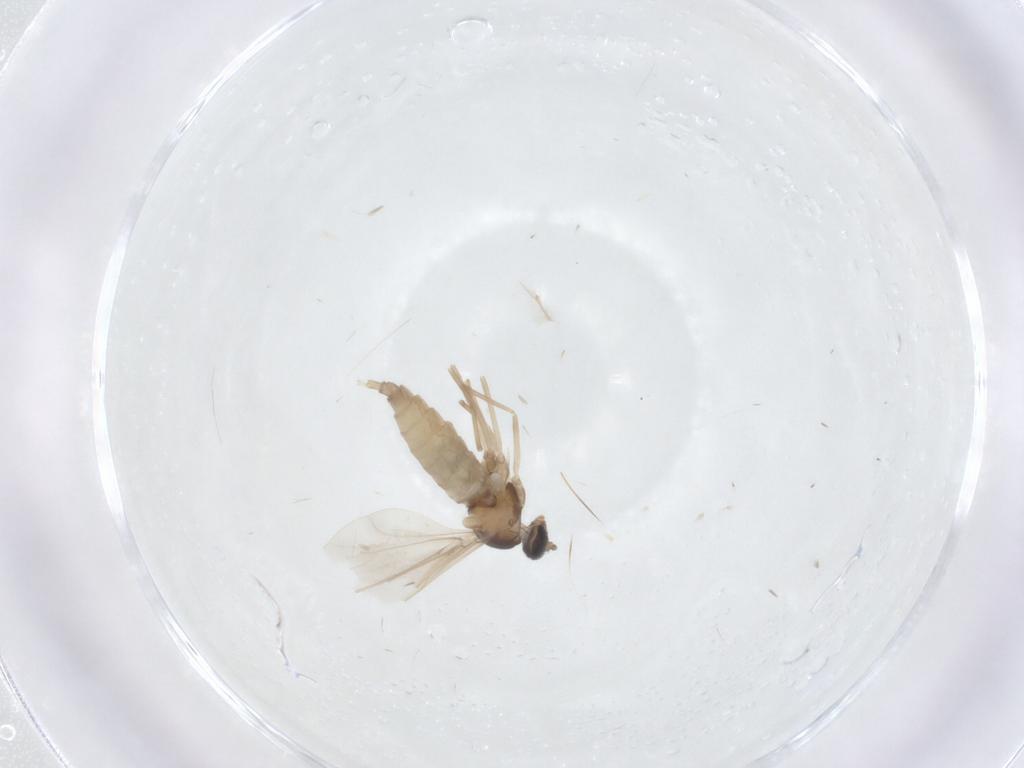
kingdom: Animalia
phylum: Arthropoda
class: Insecta
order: Diptera
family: Cecidomyiidae
